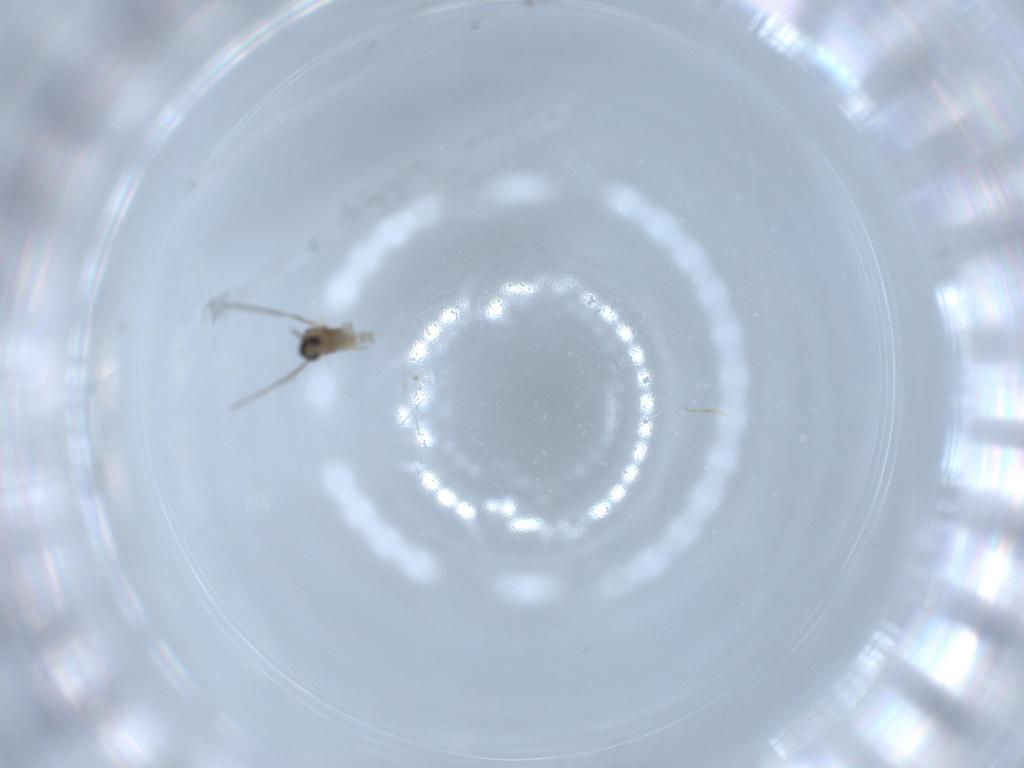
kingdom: Animalia
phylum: Arthropoda
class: Insecta
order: Diptera
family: Cecidomyiidae
